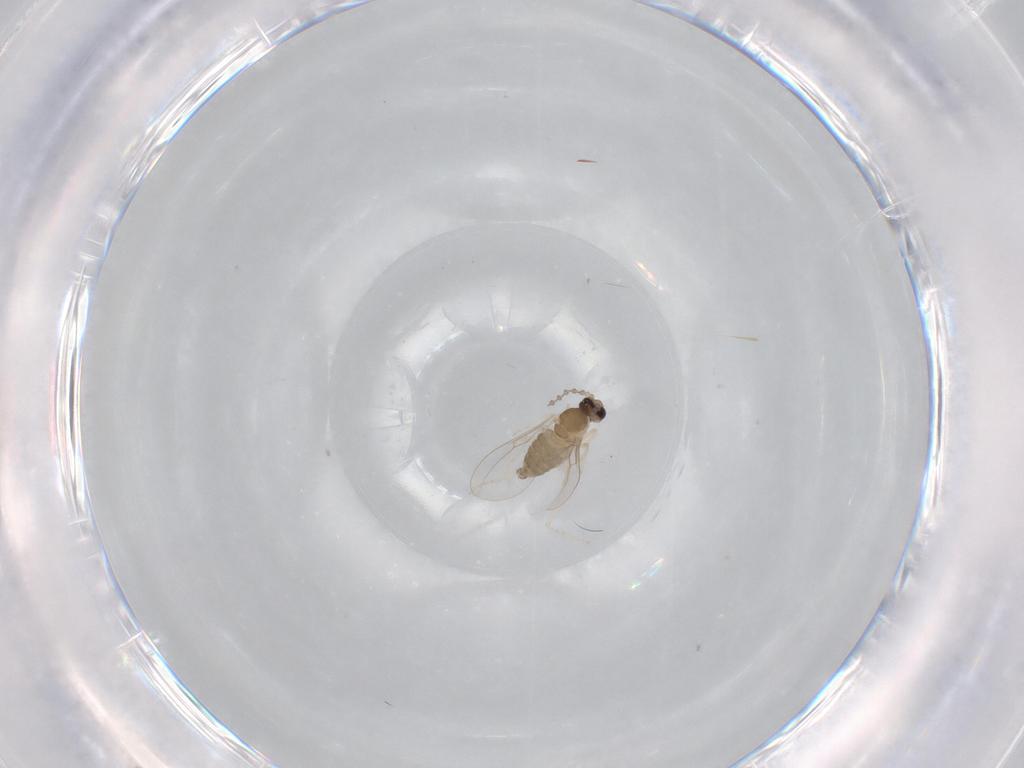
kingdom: Animalia
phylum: Arthropoda
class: Insecta
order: Diptera
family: Cecidomyiidae
